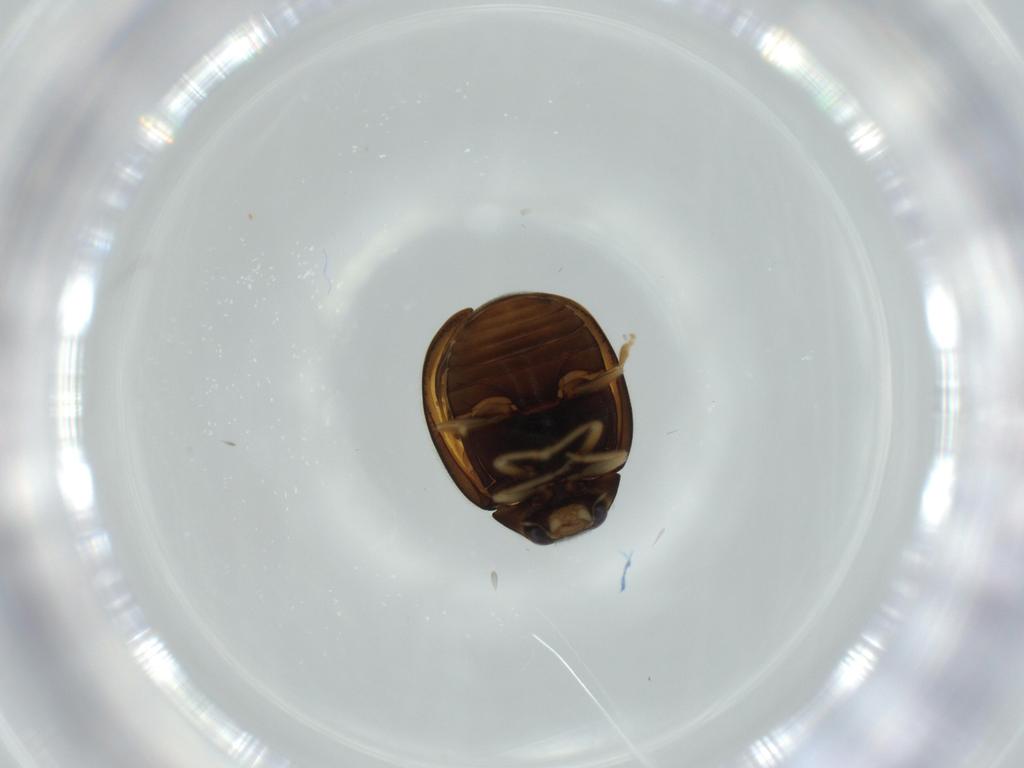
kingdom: Animalia
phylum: Arthropoda
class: Insecta
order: Coleoptera
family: Coccinellidae
